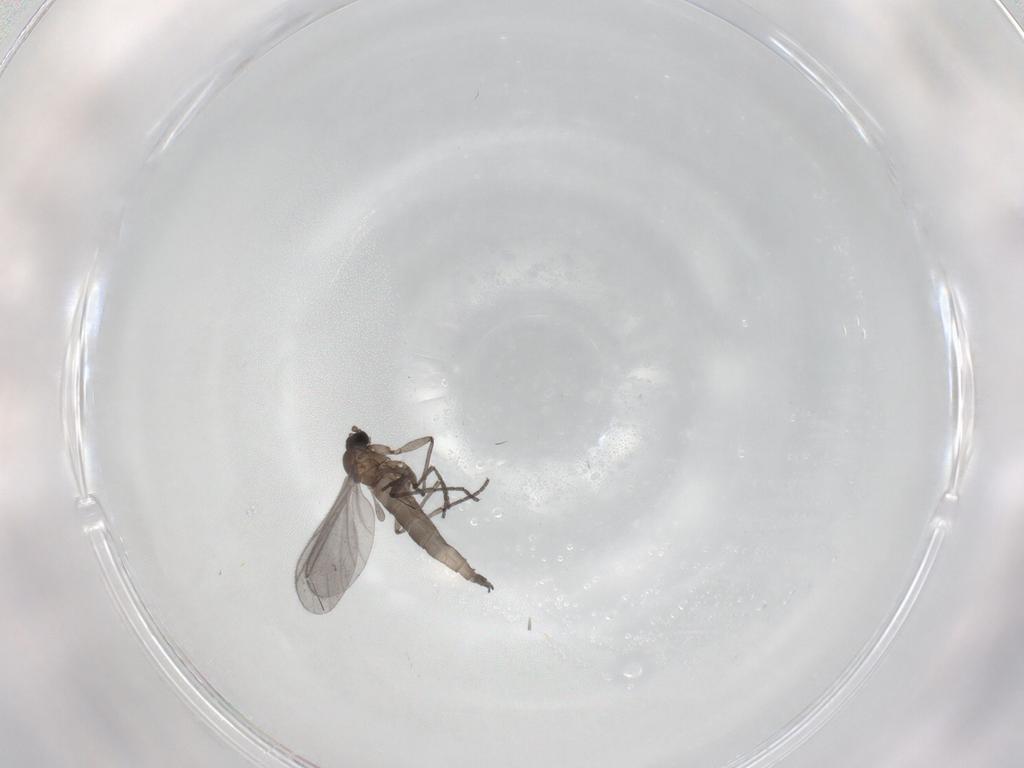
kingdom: Animalia
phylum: Arthropoda
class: Insecta
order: Diptera
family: Sciaridae
